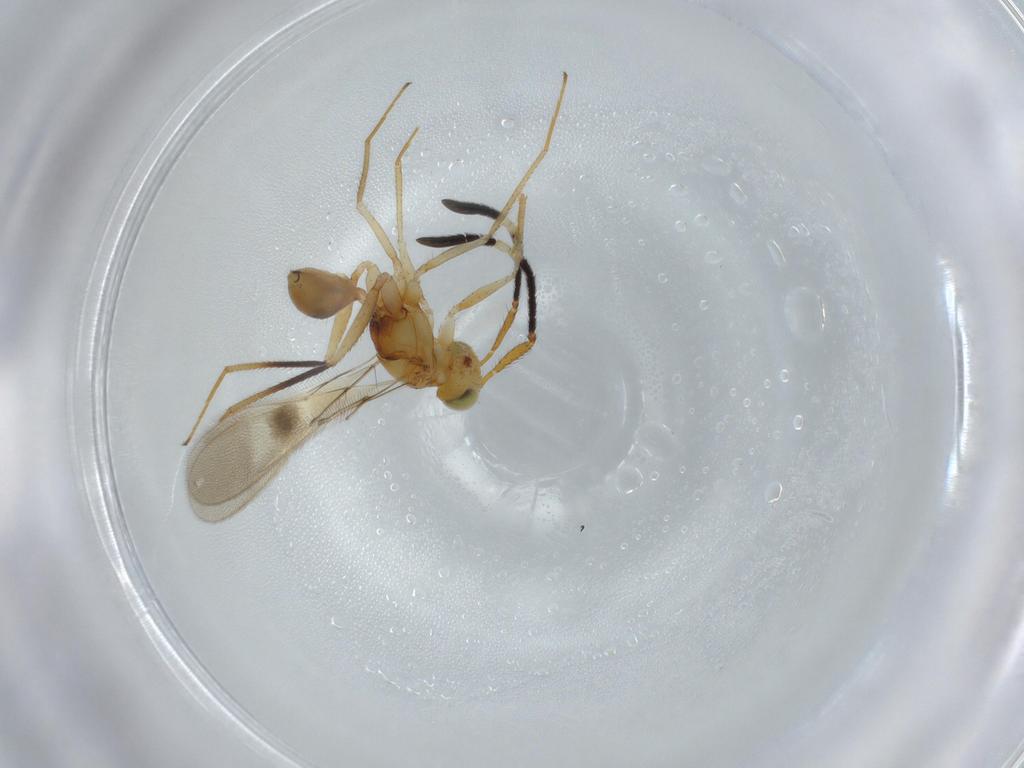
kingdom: Animalia
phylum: Arthropoda
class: Insecta
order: Hymenoptera
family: Mymaridae
